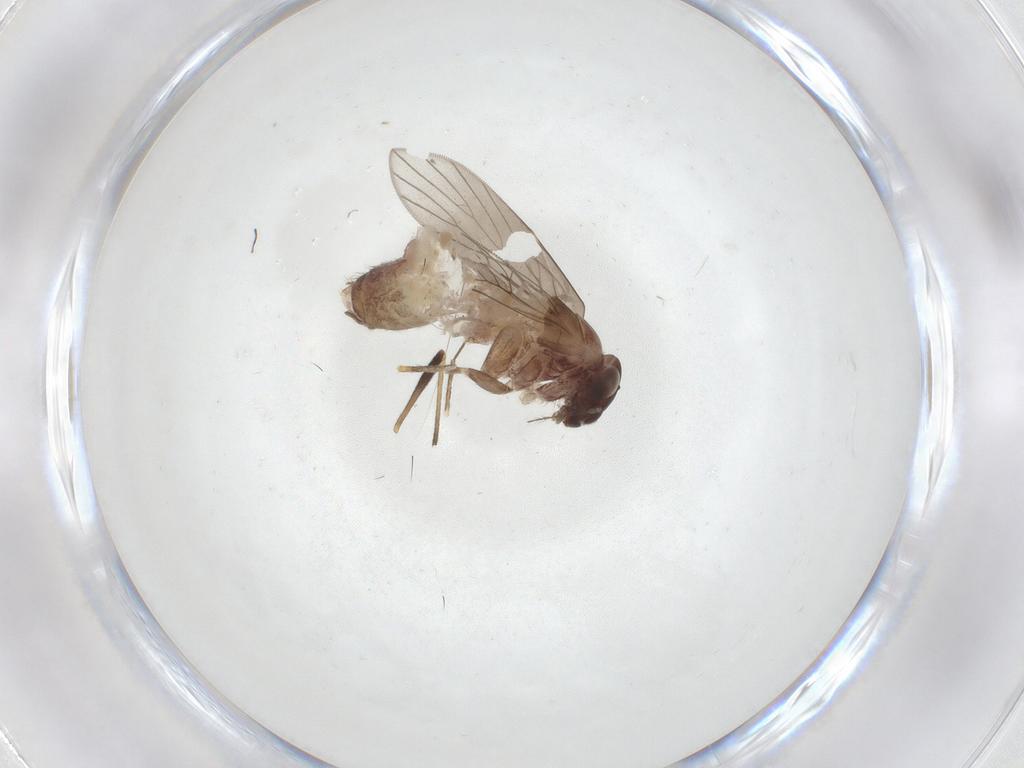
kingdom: Animalia
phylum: Arthropoda
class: Insecta
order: Psocodea
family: Lepidopsocidae
